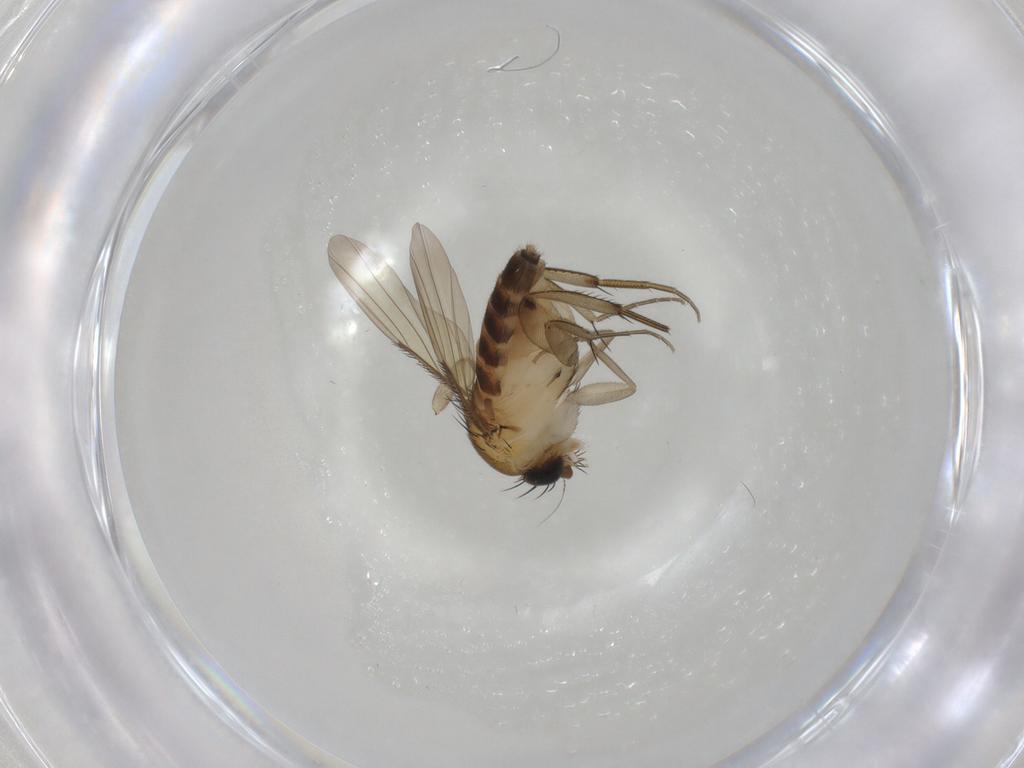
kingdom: Animalia
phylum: Arthropoda
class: Insecta
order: Diptera
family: Phoridae
